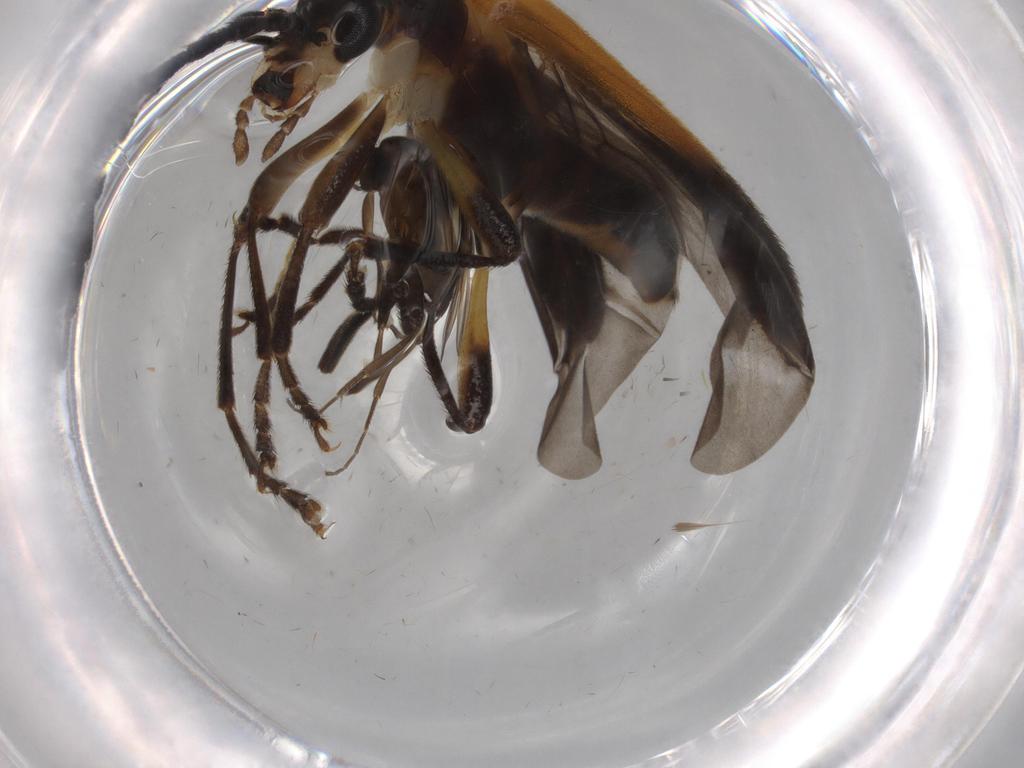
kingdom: Animalia
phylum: Arthropoda
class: Insecta
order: Coleoptera
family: Oedemeridae
